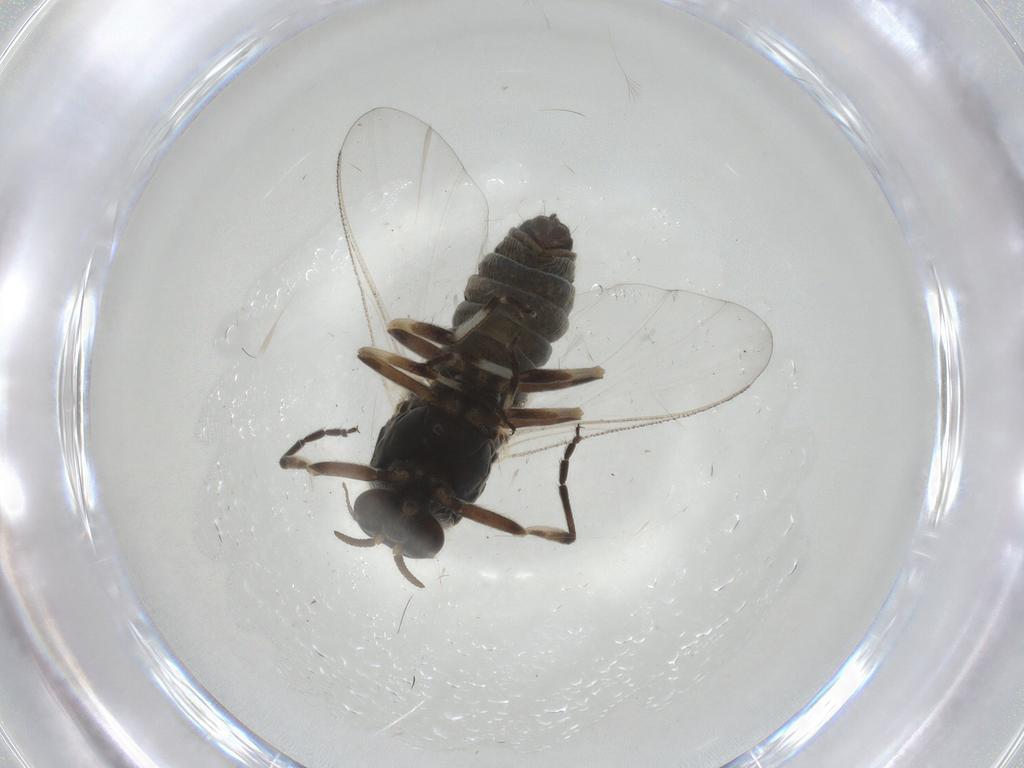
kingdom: Animalia
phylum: Arthropoda
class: Insecta
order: Diptera
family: Simuliidae
